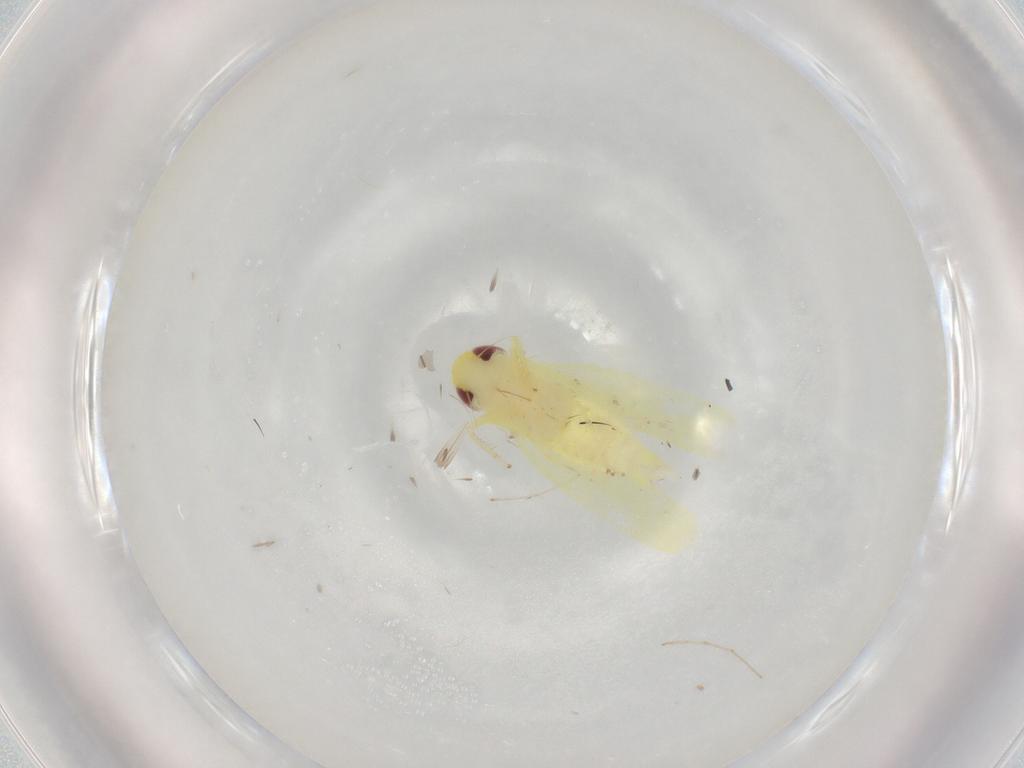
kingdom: Animalia
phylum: Arthropoda
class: Insecta
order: Hemiptera
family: Cicadellidae
